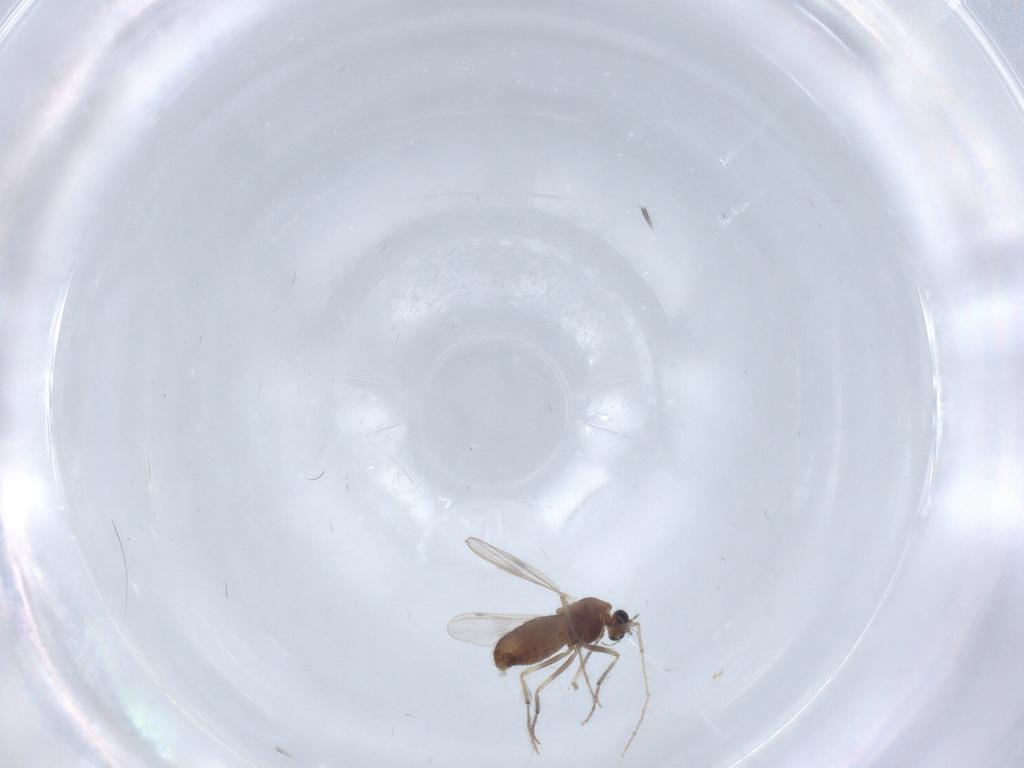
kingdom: Animalia
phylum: Arthropoda
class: Insecta
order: Diptera
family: Chironomidae
